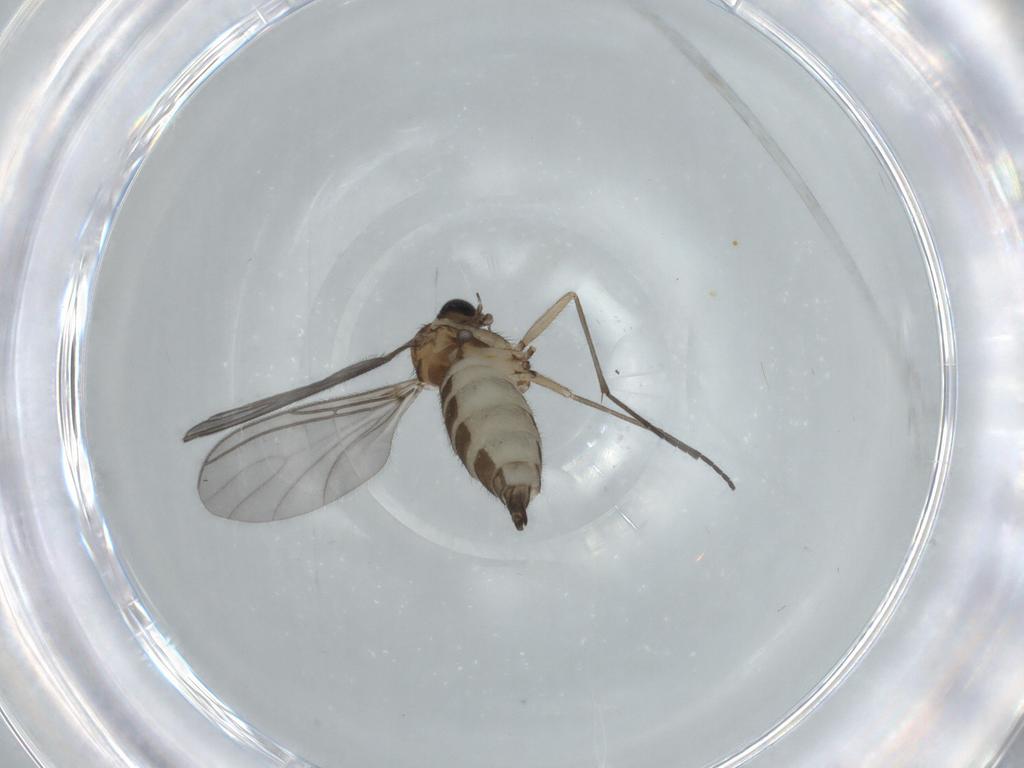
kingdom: Animalia
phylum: Arthropoda
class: Insecta
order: Diptera
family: Sciaridae
